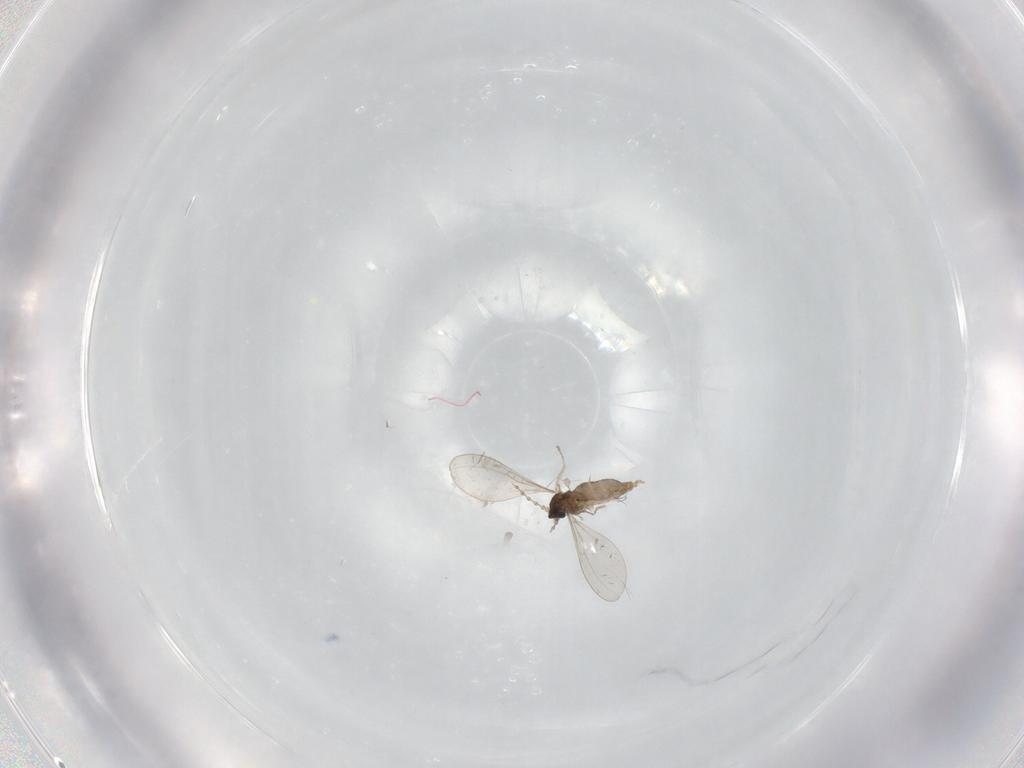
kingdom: Animalia
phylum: Arthropoda
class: Insecta
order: Diptera
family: Cecidomyiidae
